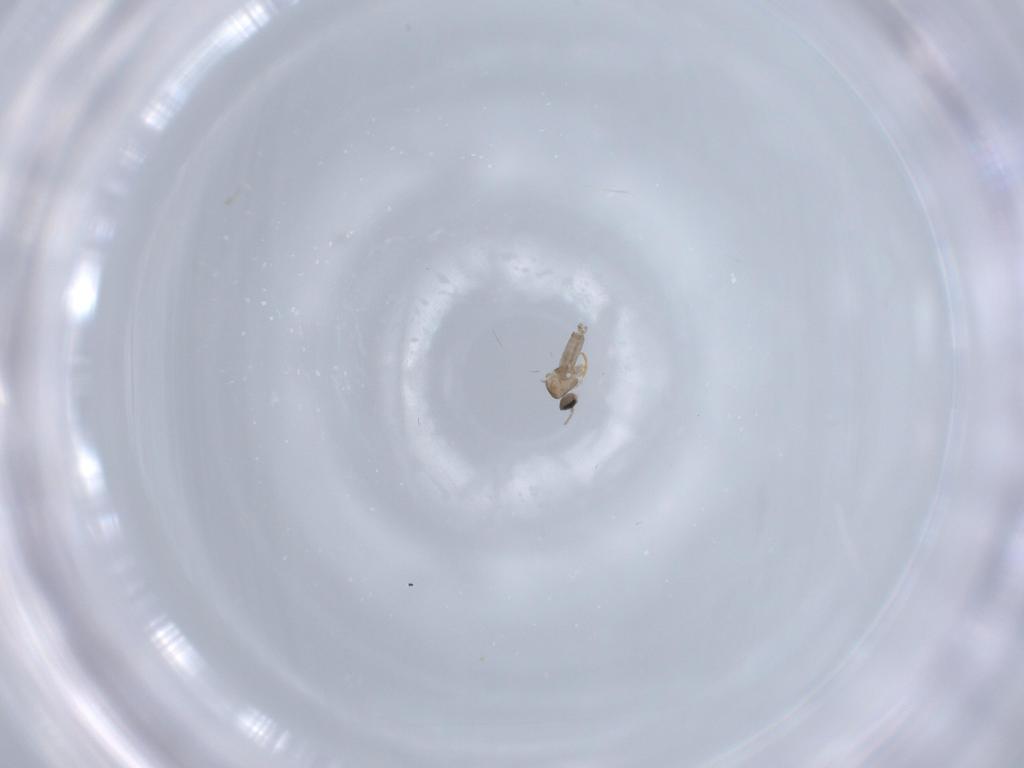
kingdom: Animalia
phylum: Arthropoda
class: Insecta
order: Diptera
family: Cecidomyiidae
